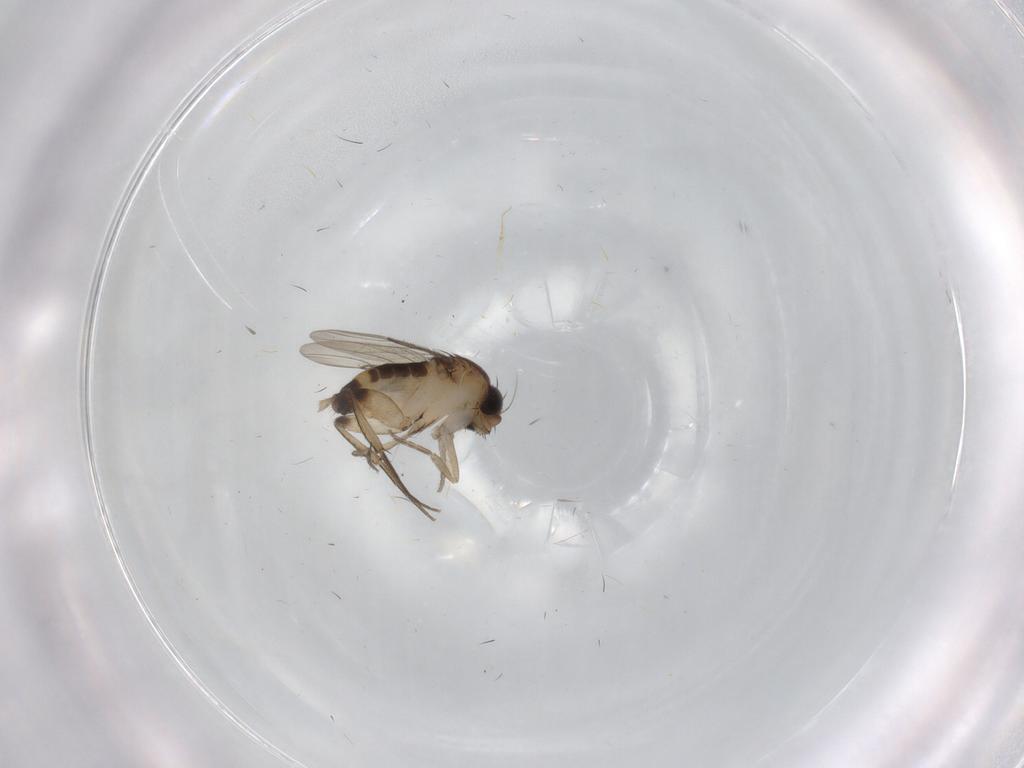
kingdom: Animalia
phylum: Arthropoda
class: Insecta
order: Diptera
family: Phoridae
